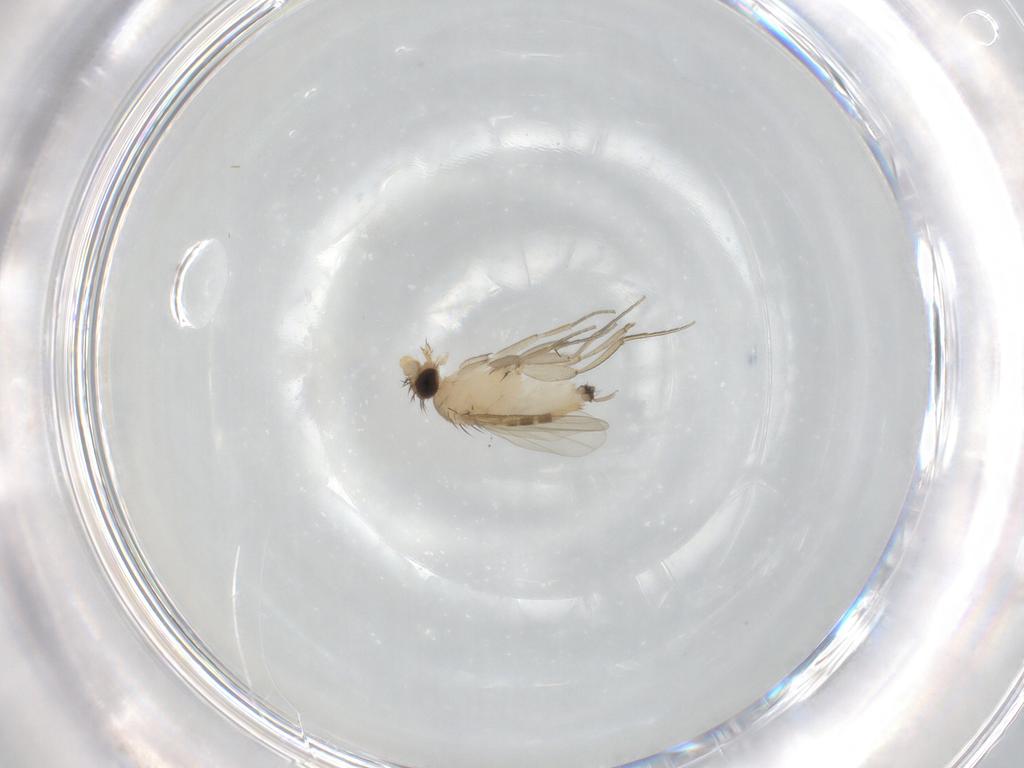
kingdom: Animalia
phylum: Arthropoda
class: Insecta
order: Diptera
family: Phoridae
